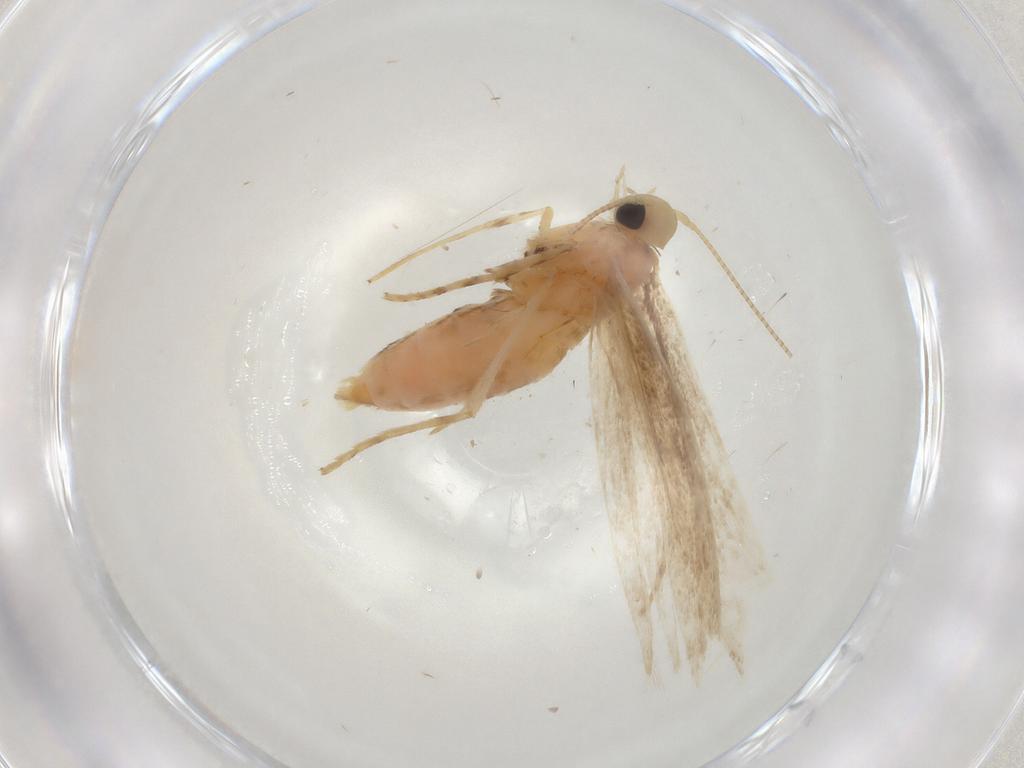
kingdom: Animalia
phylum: Arthropoda
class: Insecta
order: Lepidoptera
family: Gracillariidae
